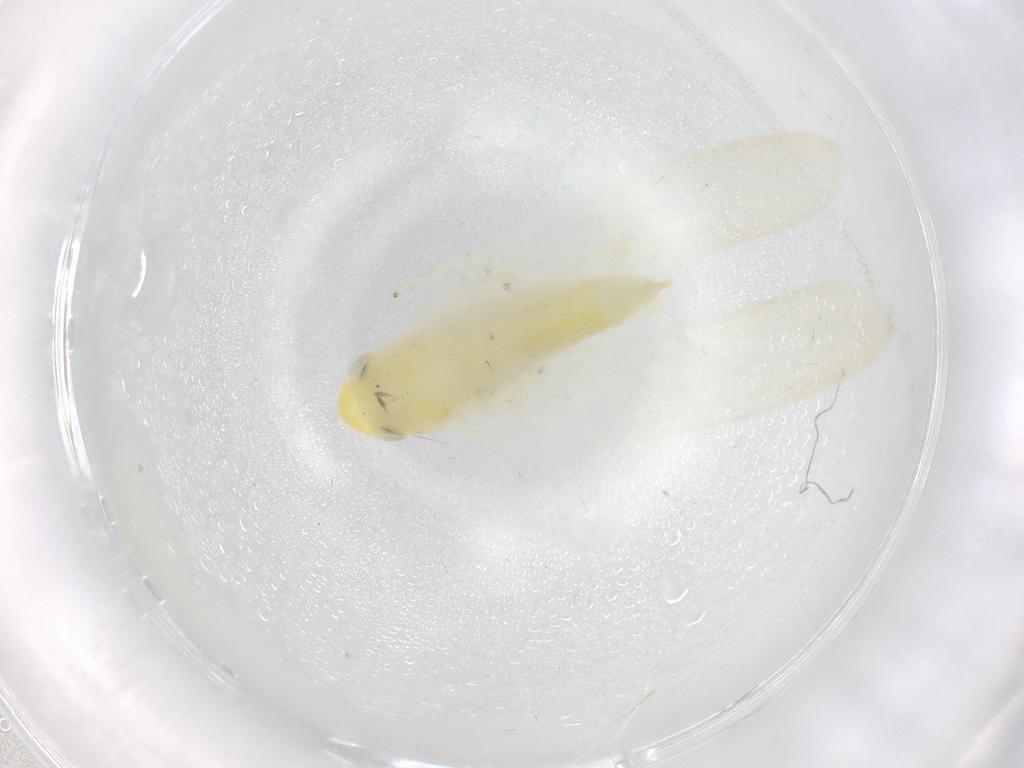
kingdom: Animalia
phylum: Arthropoda
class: Insecta
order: Hemiptera
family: Cicadellidae
